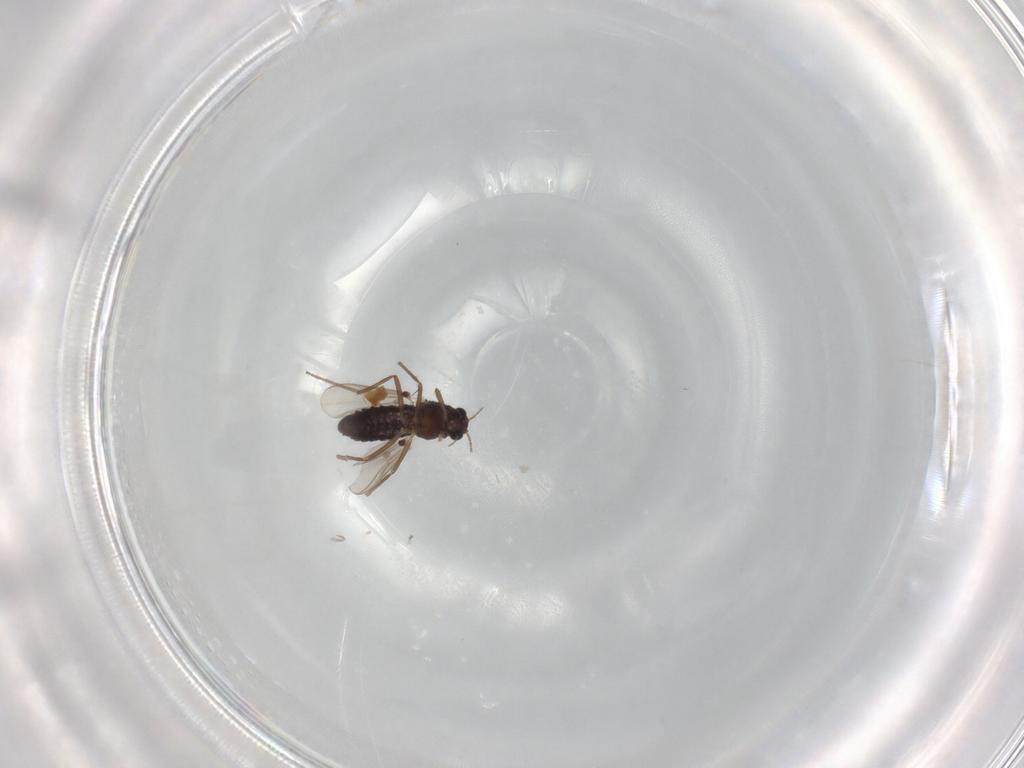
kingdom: Animalia
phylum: Arthropoda
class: Insecta
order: Diptera
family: Chironomidae
